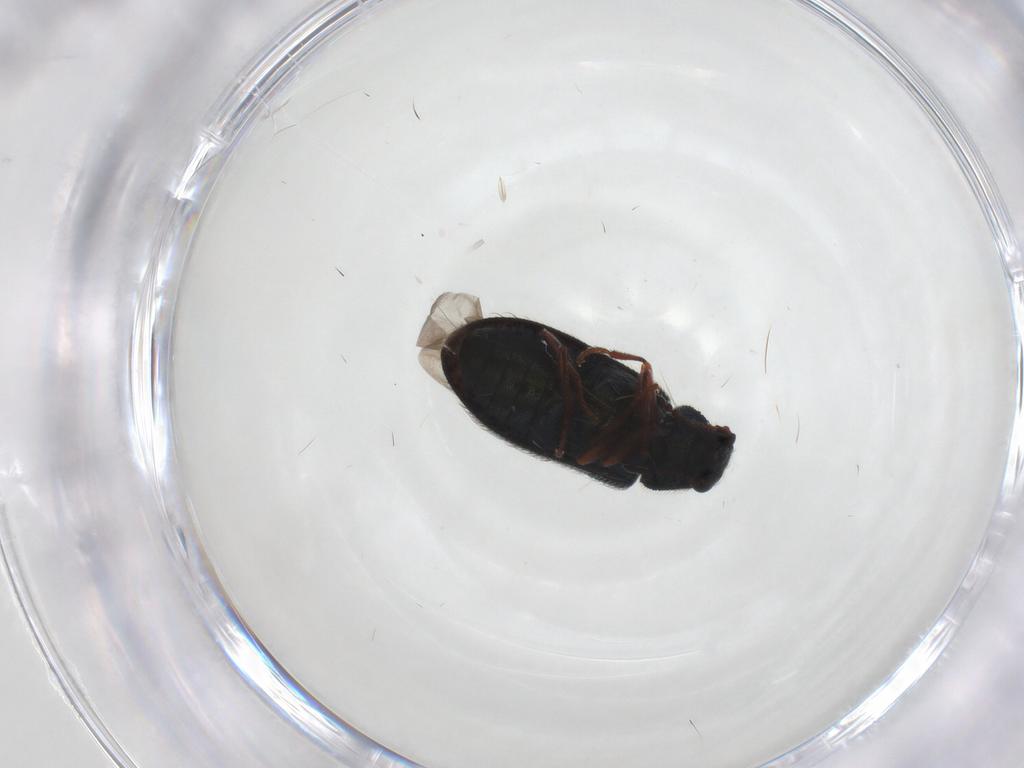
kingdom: Animalia
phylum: Arthropoda
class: Insecta
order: Coleoptera
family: Melyridae
